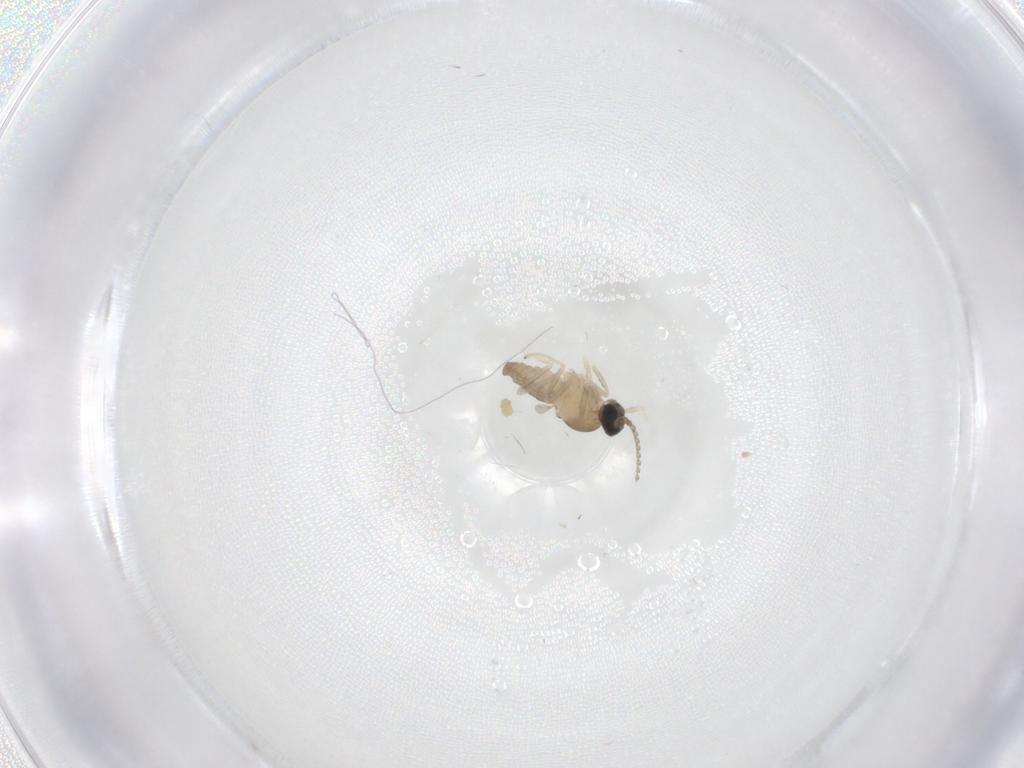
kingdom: Animalia
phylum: Arthropoda
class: Insecta
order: Diptera
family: Cecidomyiidae
